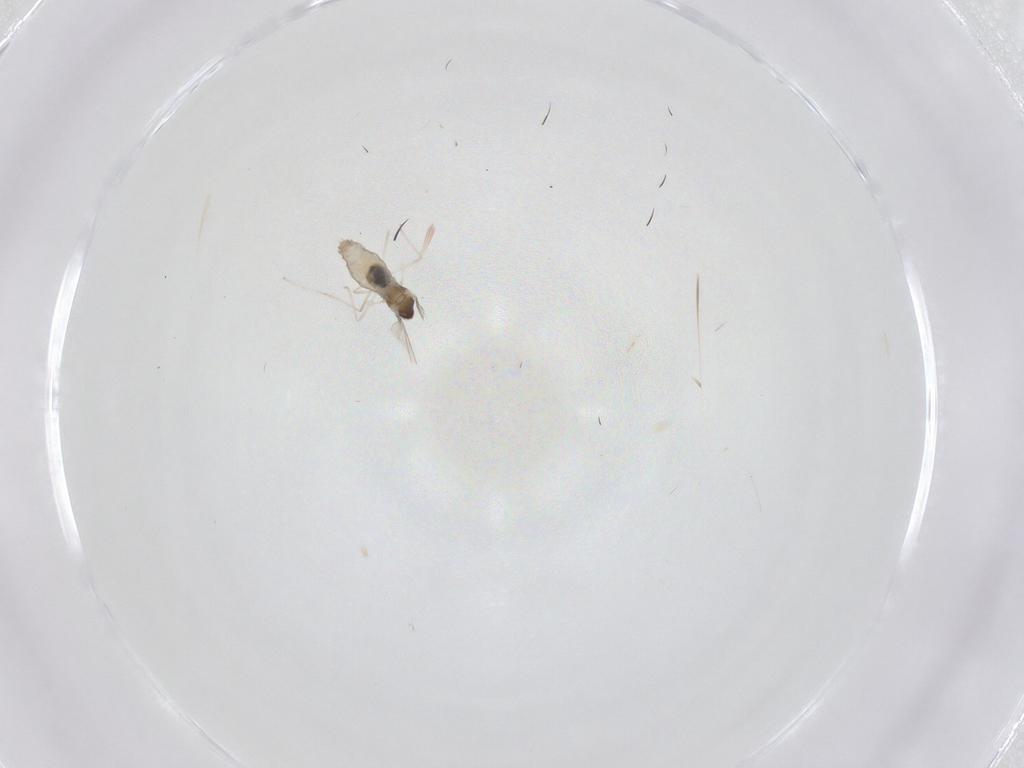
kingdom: Animalia
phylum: Arthropoda
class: Insecta
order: Diptera
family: Cecidomyiidae
